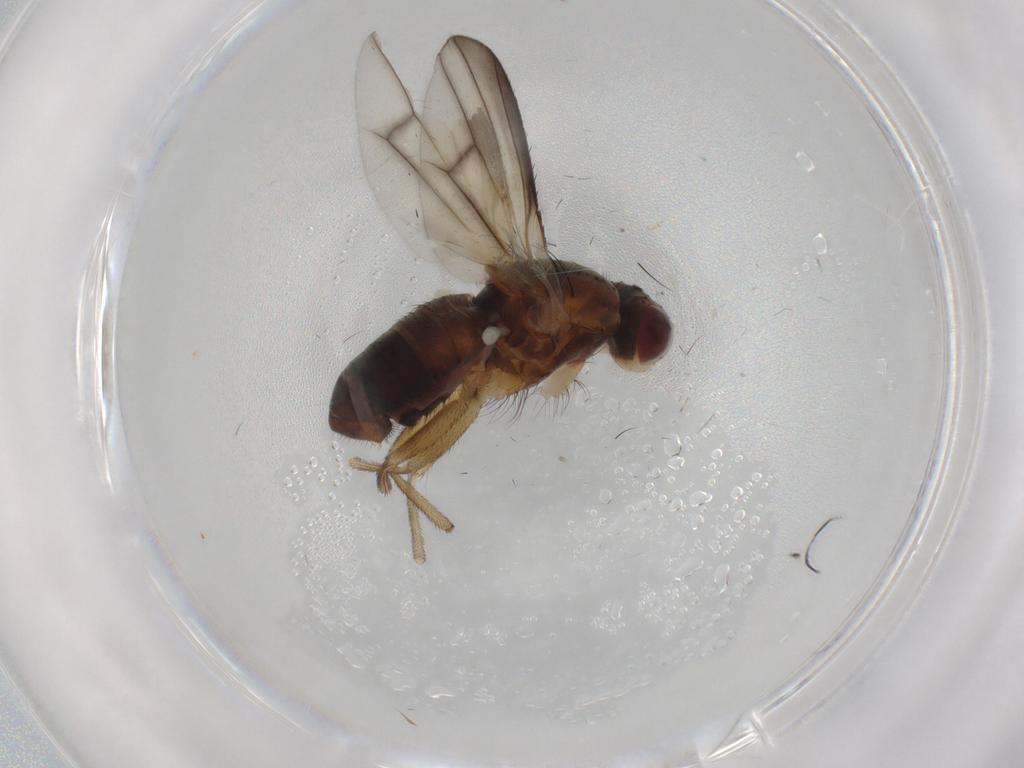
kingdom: Animalia
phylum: Arthropoda
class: Insecta
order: Diptera
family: Heleomyzidae
